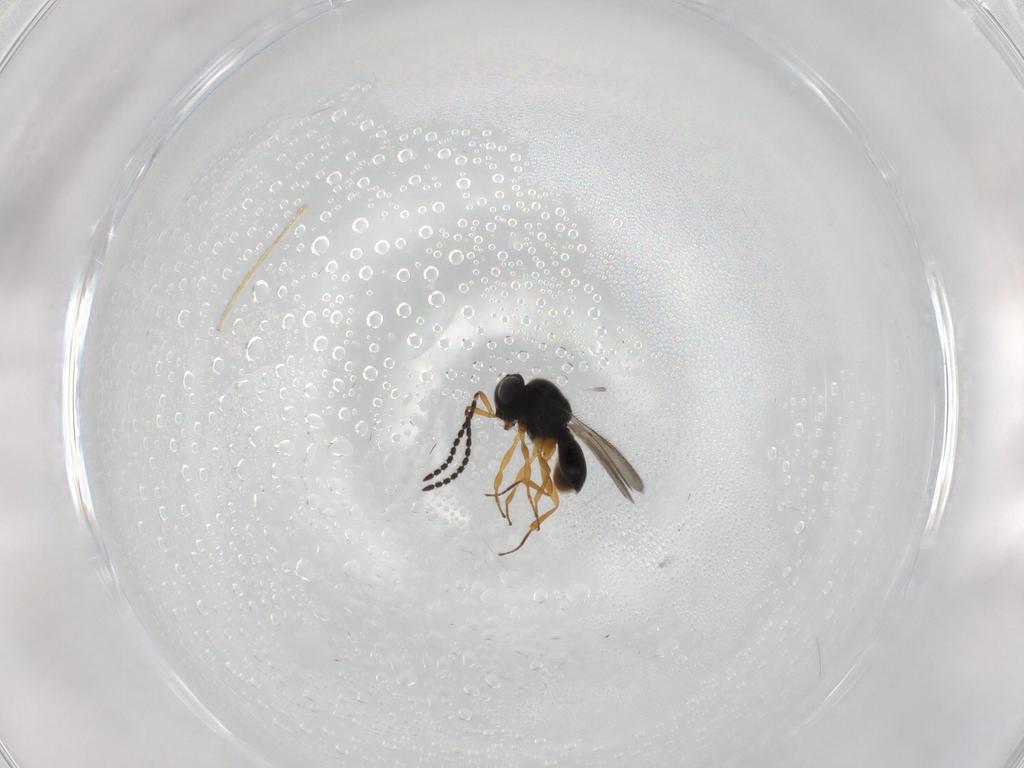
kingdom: Animalia
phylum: Arthropoda
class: Insecta
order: Hymenoptera
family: Scelionidae
